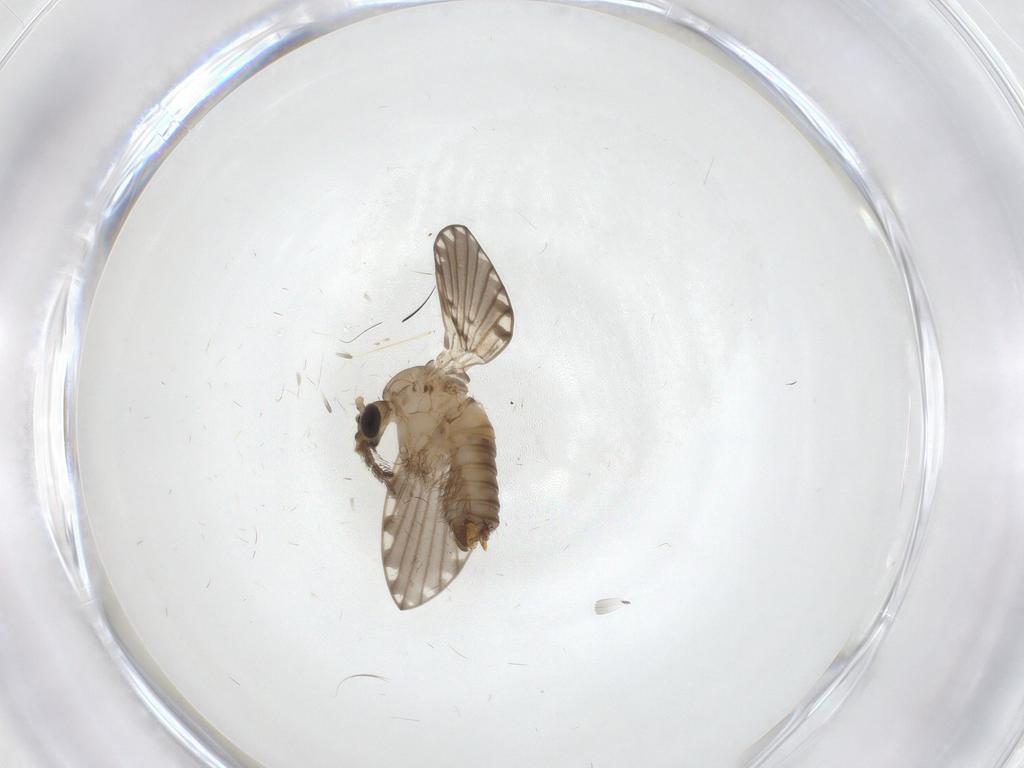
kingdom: Animalia
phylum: Arthropoda
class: Insecta
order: Diptera
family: Psychodidae
